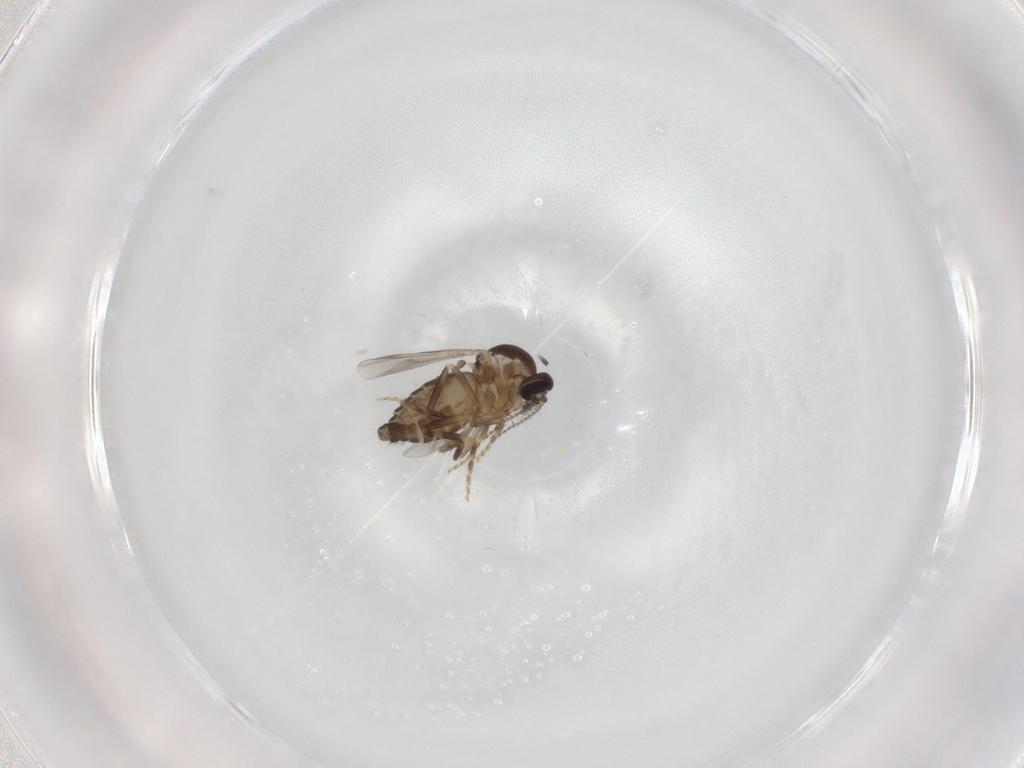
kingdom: Animalia
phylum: Arthropoda
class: Insecta
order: Diptera
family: Ceratopogonidae
